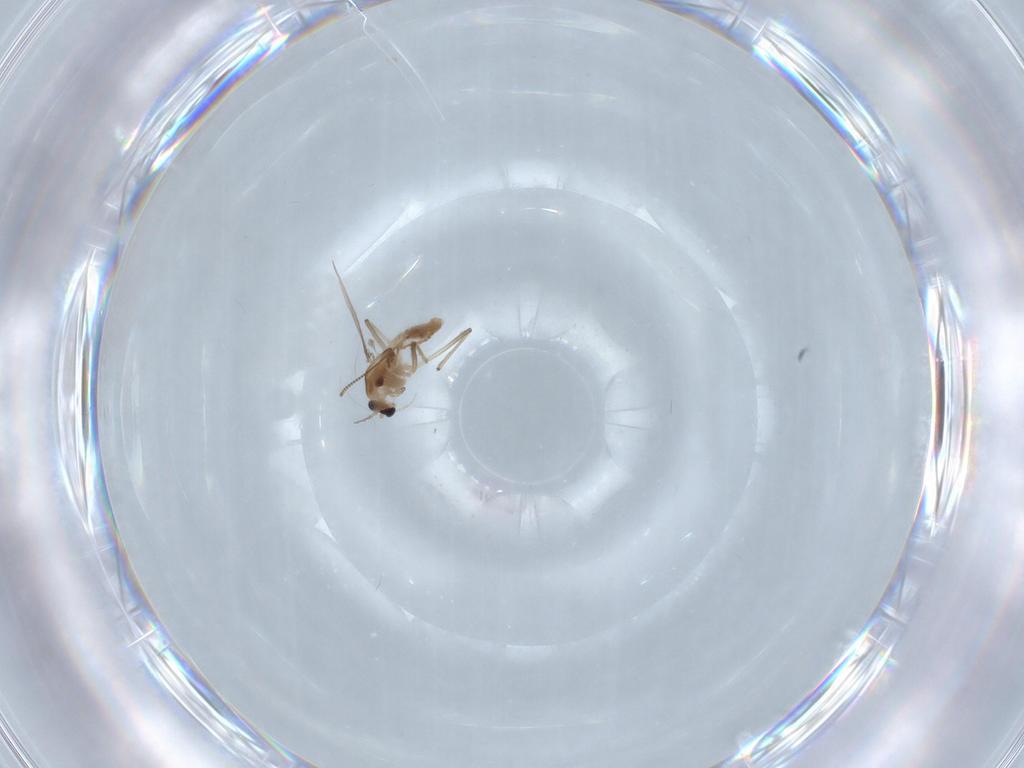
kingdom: Animalia
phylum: Arthropoda
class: Insecta
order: Diptera
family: Chironomidae
